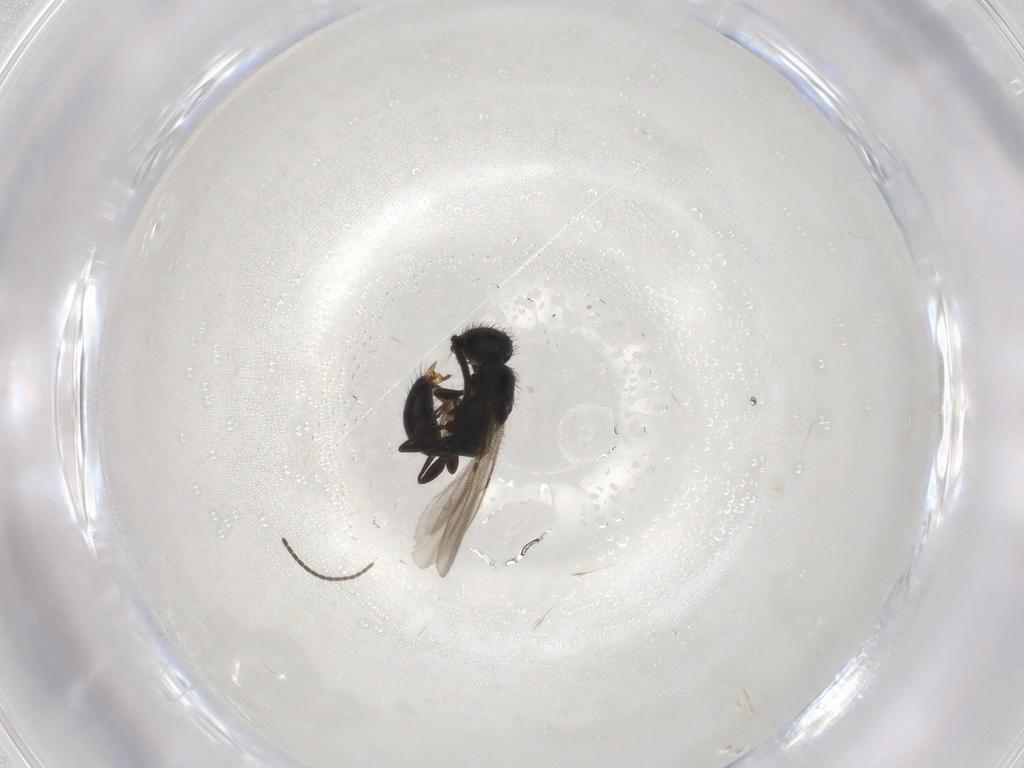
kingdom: Animalia
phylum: Arthropoda
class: Insecta
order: Hymenoptera
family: Bethylidae
